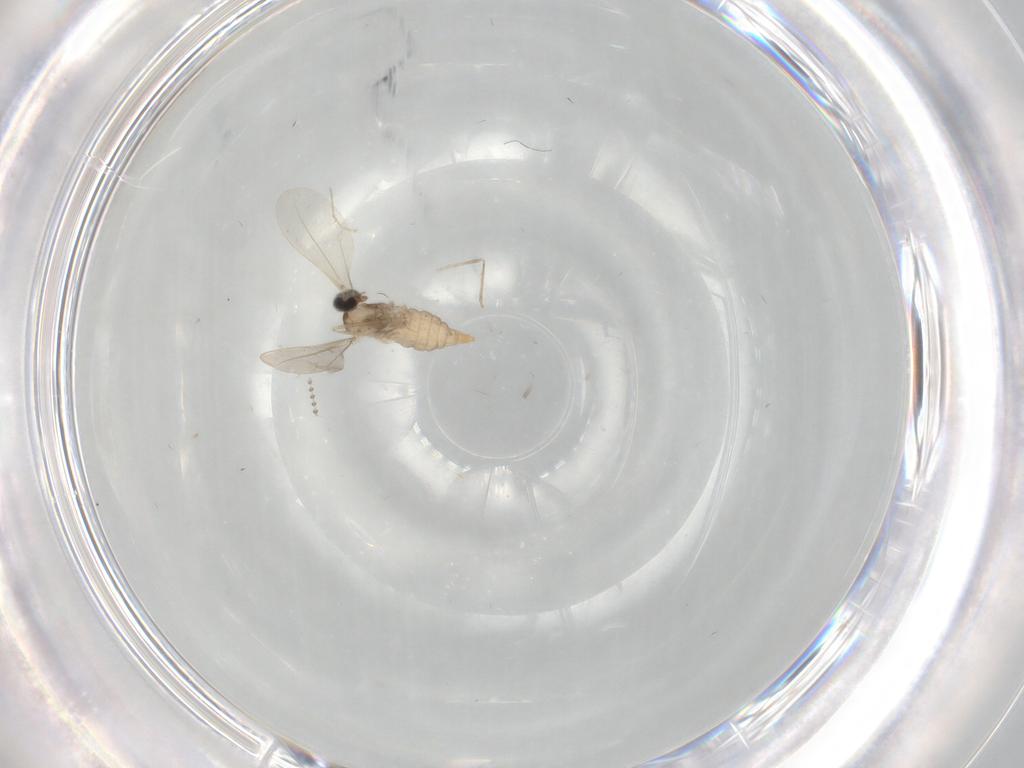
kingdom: Animalia
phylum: Arthropoda
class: Insecta
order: Diptera
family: Cecidomyiidae
